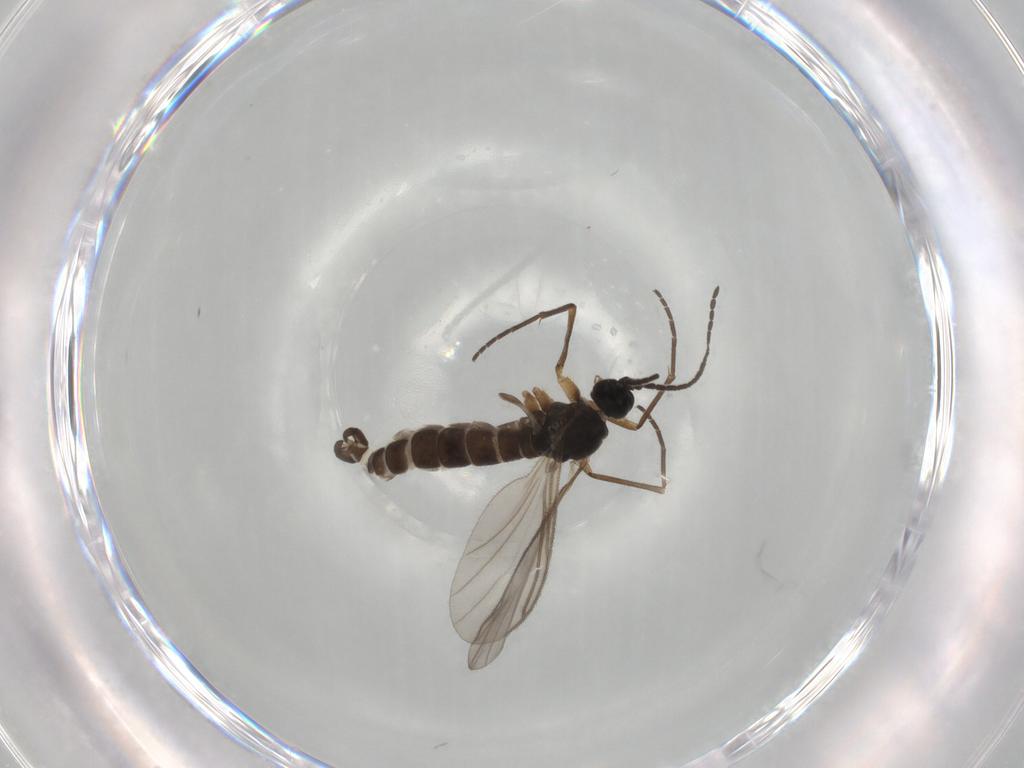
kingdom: Animalia
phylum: Arthropoda
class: Insecta
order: Diptera
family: Sciaridae
